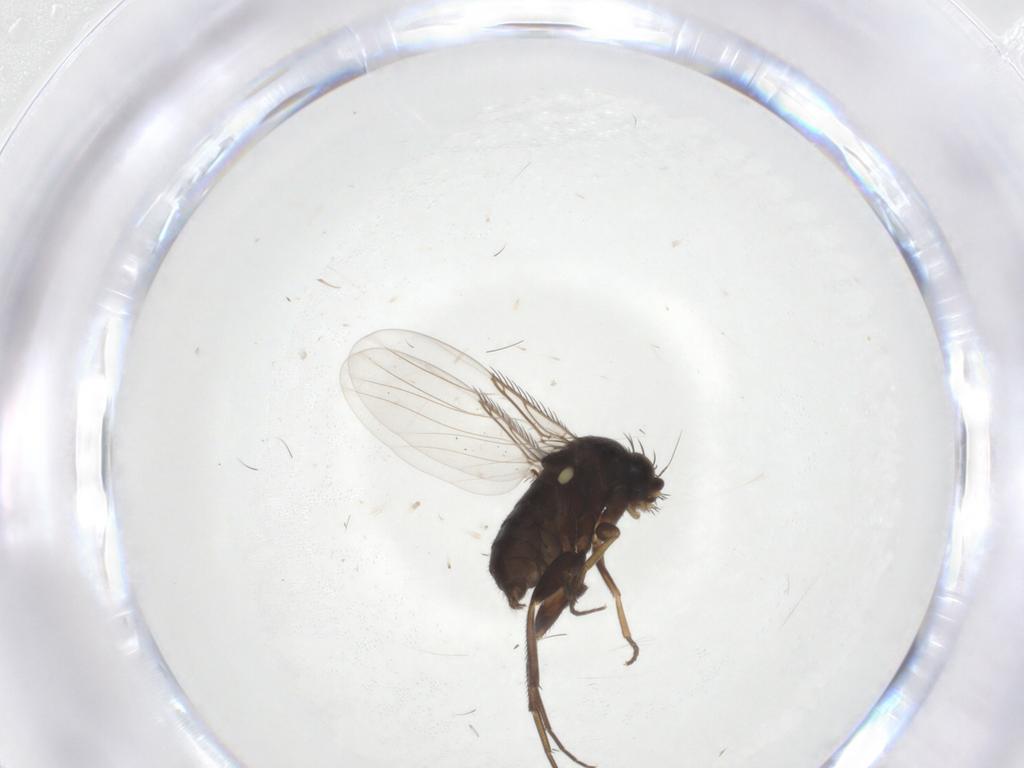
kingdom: Animalia
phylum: Arthropoda
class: Insecta
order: Diptera
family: Phoridae
